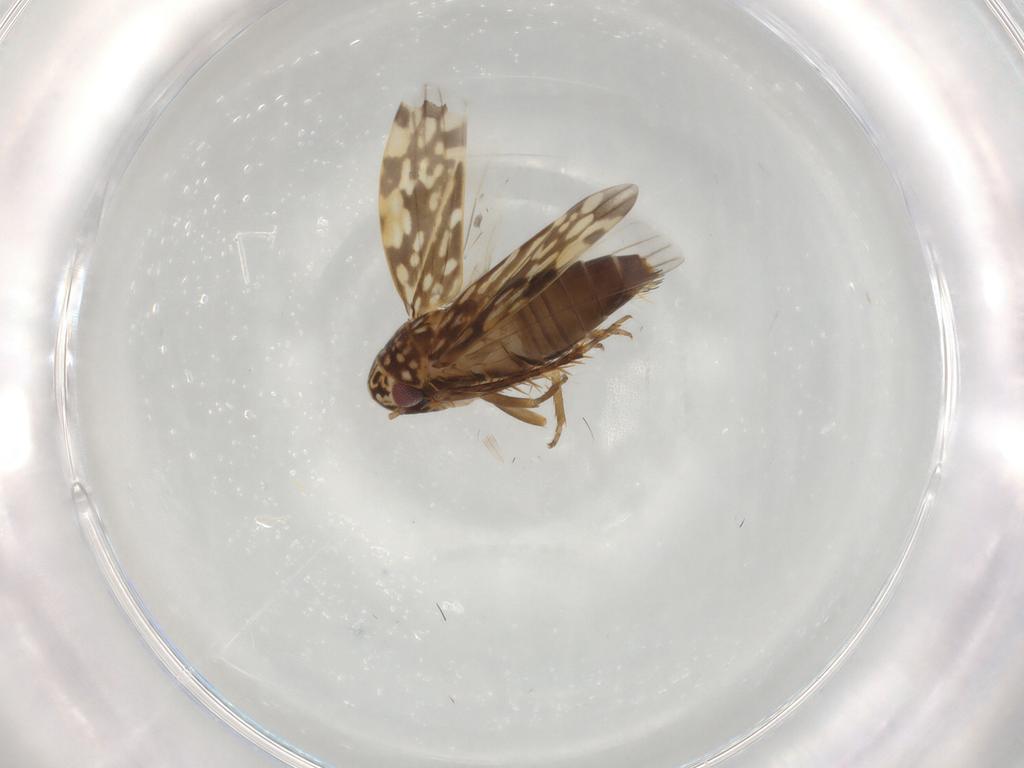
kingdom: Animalia
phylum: Arthropoda
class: Insecta
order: Hemiptera
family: Cicadellidae
